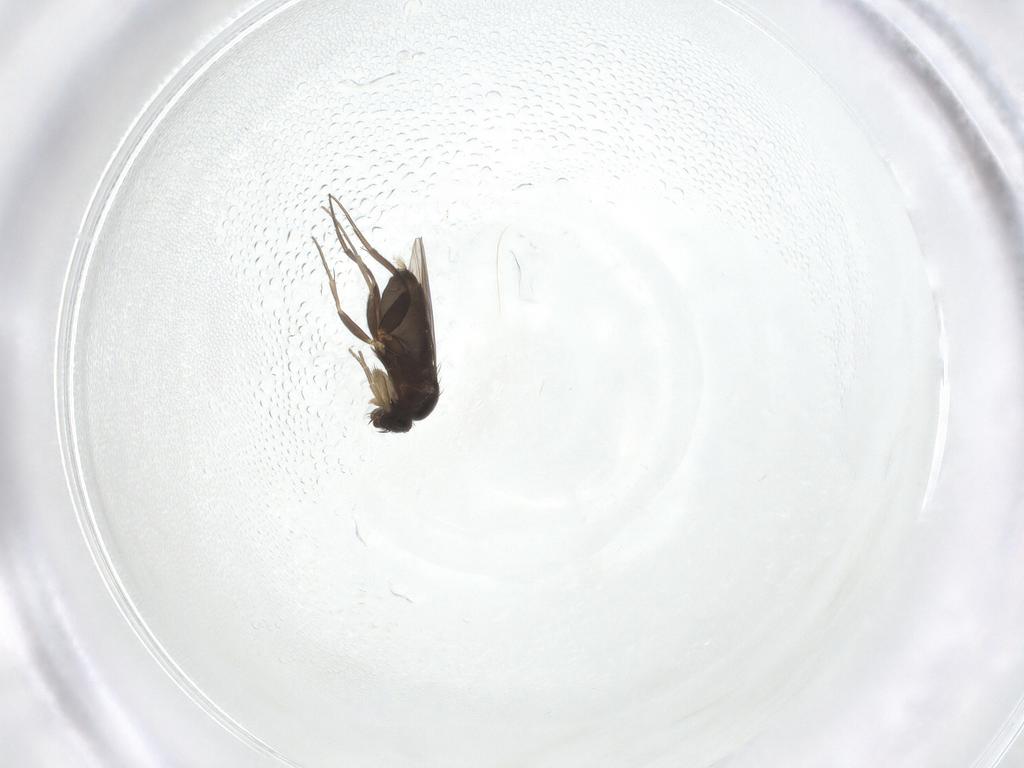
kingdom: Animalia
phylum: Arthropoda
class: Insecta
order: Diptera
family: Phoridae
